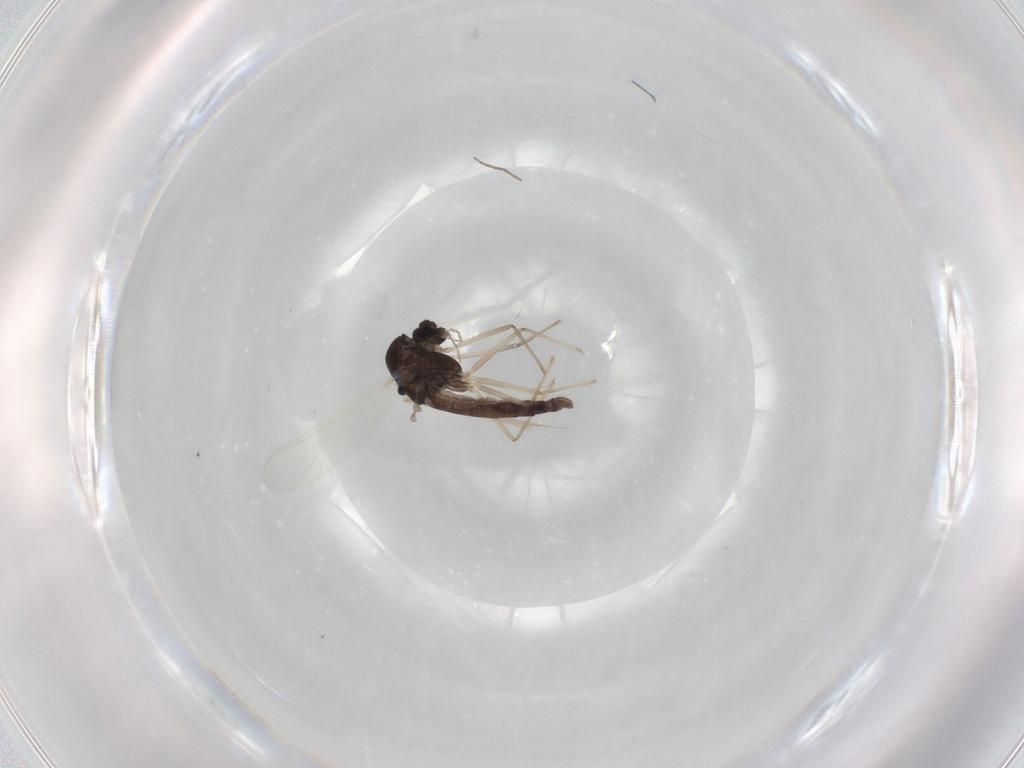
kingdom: Animalia
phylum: Arthropoda
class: Insecta
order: Diptera
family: Chironomidae
